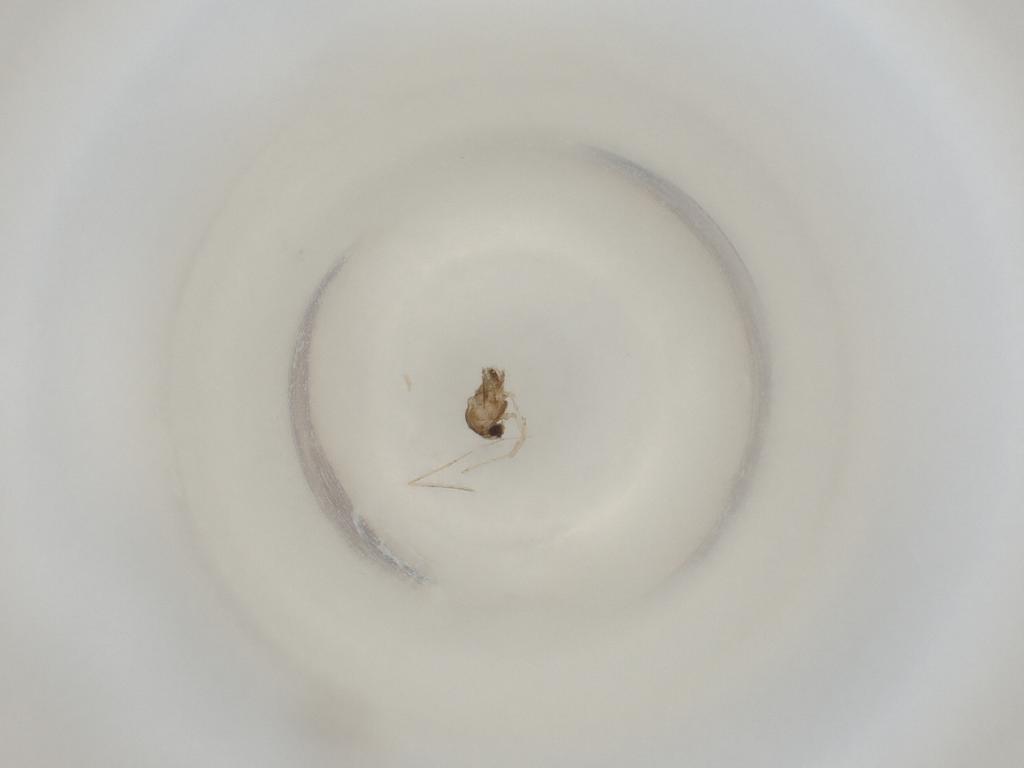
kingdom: Animalia
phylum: Arthropoda
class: Insecta
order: Diptera
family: Cecidomyiidae
